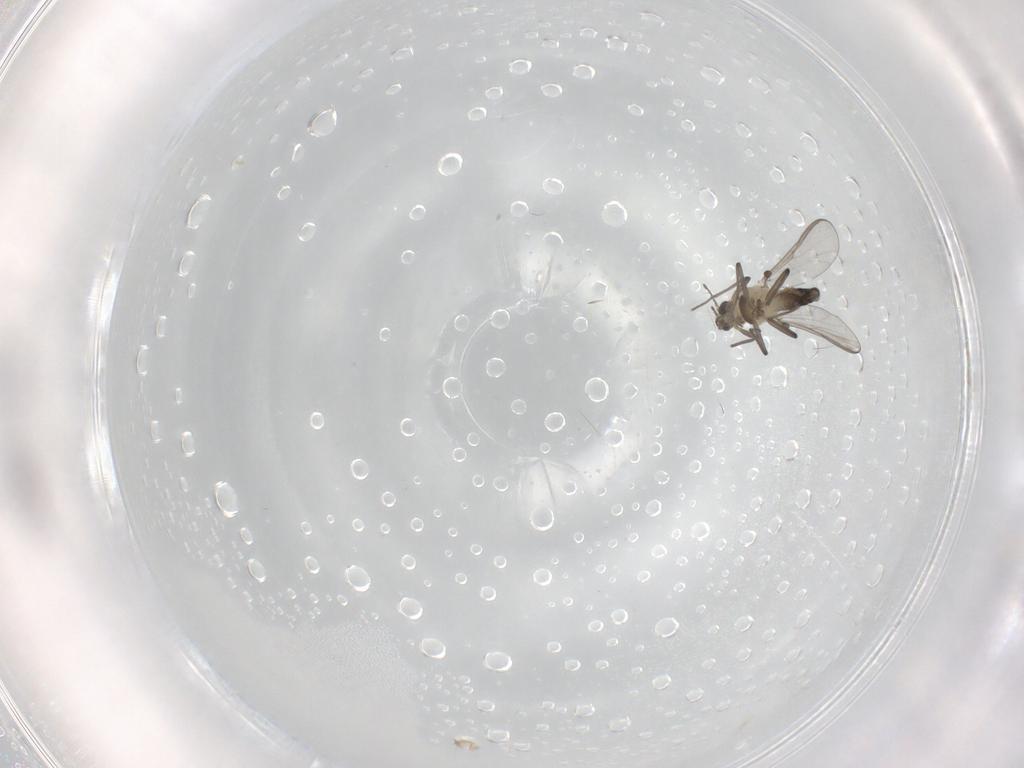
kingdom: Animalia
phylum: Arthropoda
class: Insecta
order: Diptera
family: Chironomidae
